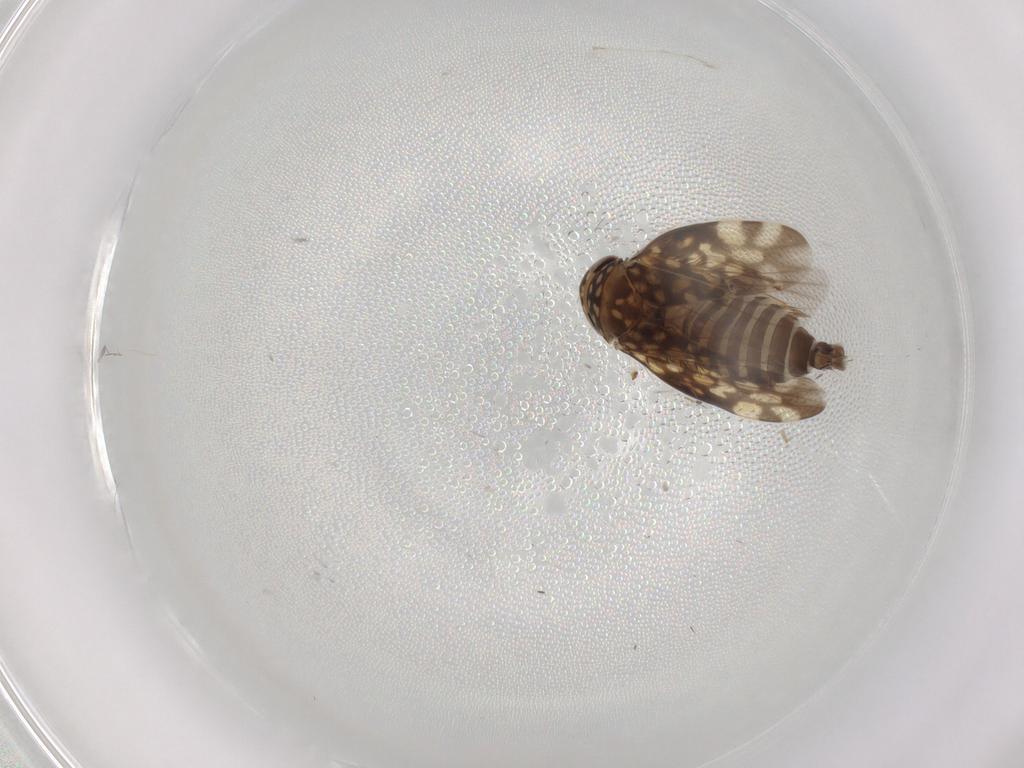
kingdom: Animalia
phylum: Arthropoda
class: Insecta
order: Hemiptera
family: Cicadellidae
